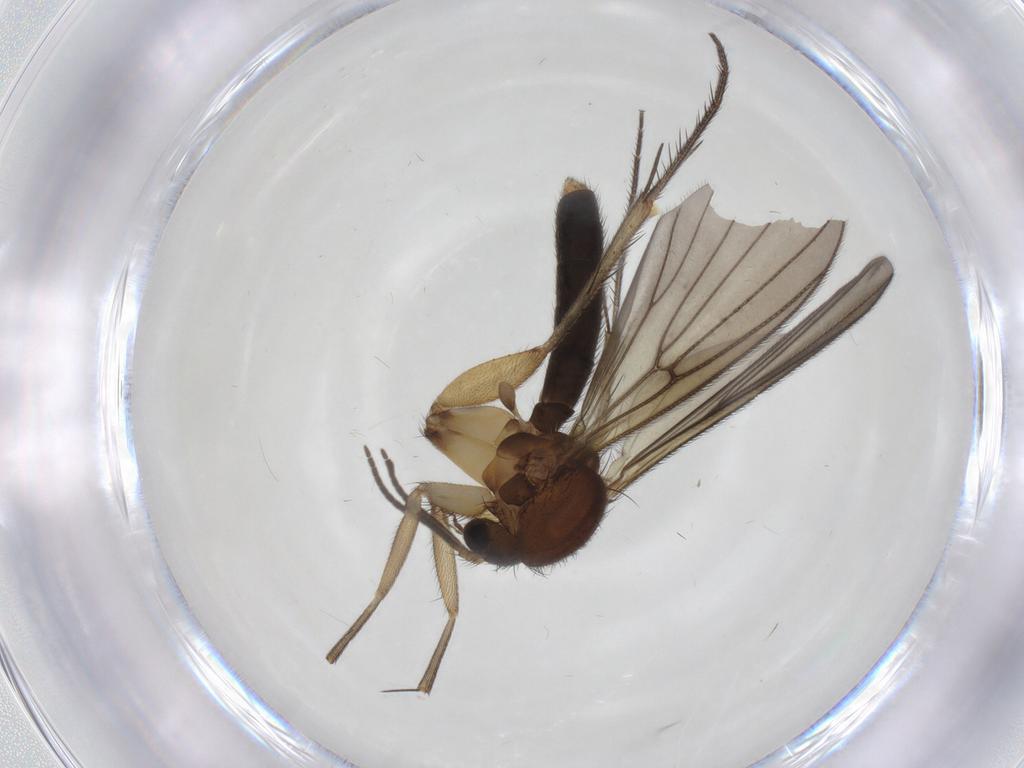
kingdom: Animalia
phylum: Arthropoda
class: Insecta
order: Diptera
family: Mycetophilidae
